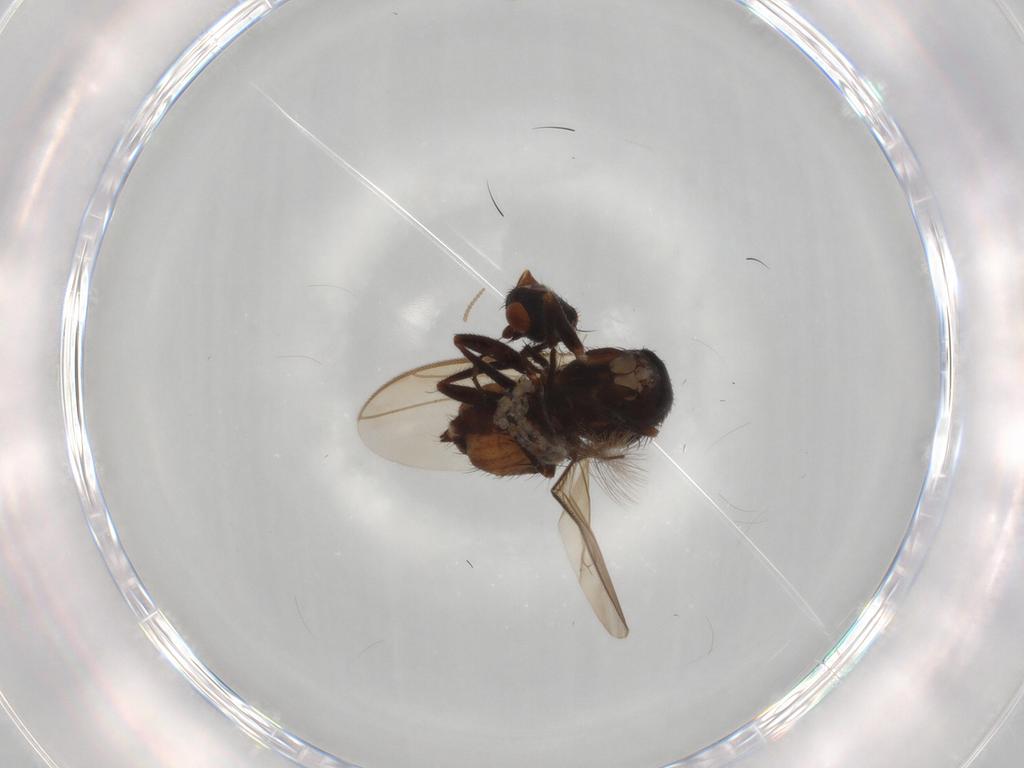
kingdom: Animalia
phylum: Arthropoda
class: Insecta
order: Diptera
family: Sphaeroceridae
